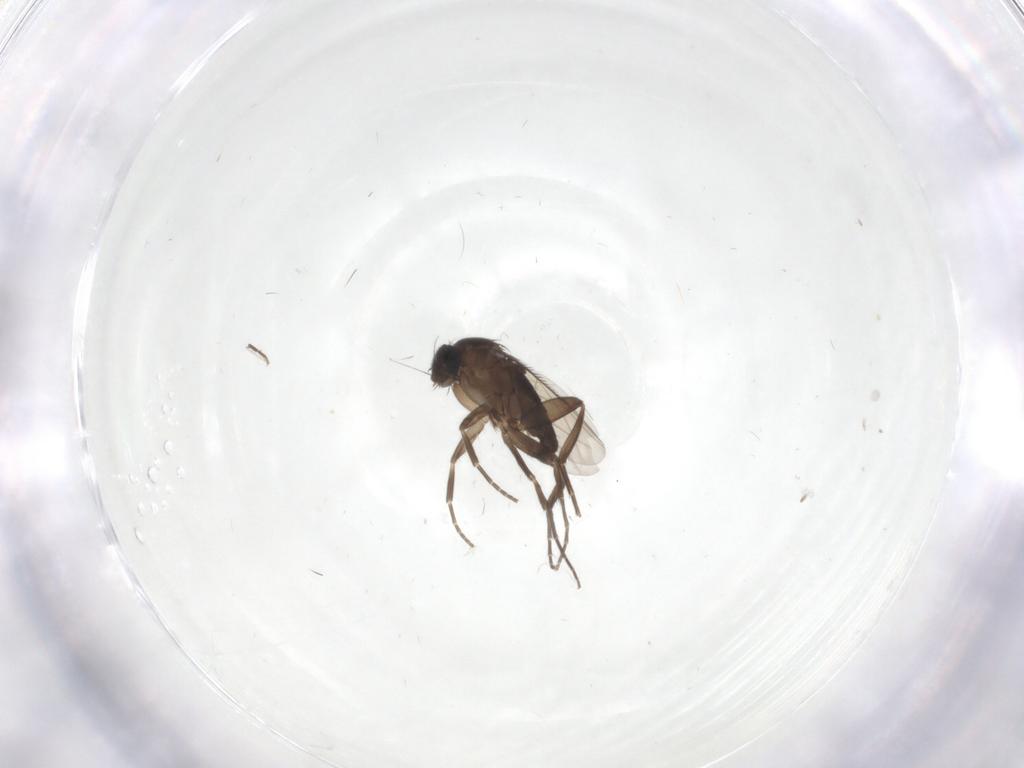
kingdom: Animalia
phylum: Arthropoda
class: Insecta
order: Diptera
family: Phoridae
